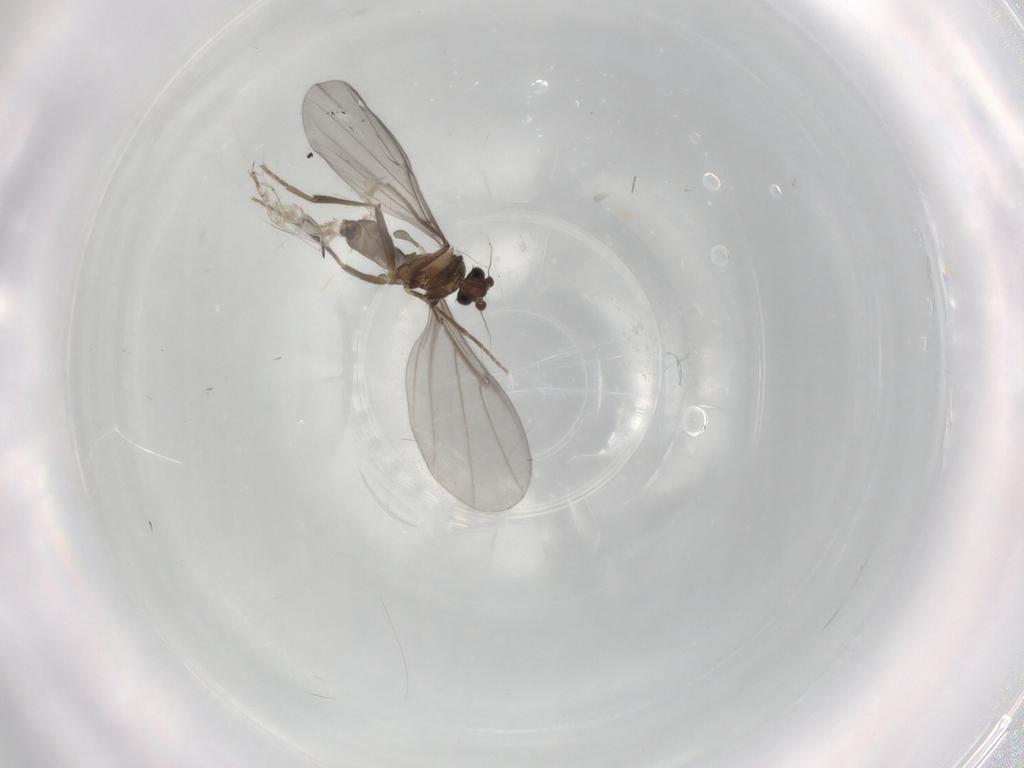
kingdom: Animalia
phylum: Arthropoda
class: Insecta
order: Diptera
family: Phoridae
